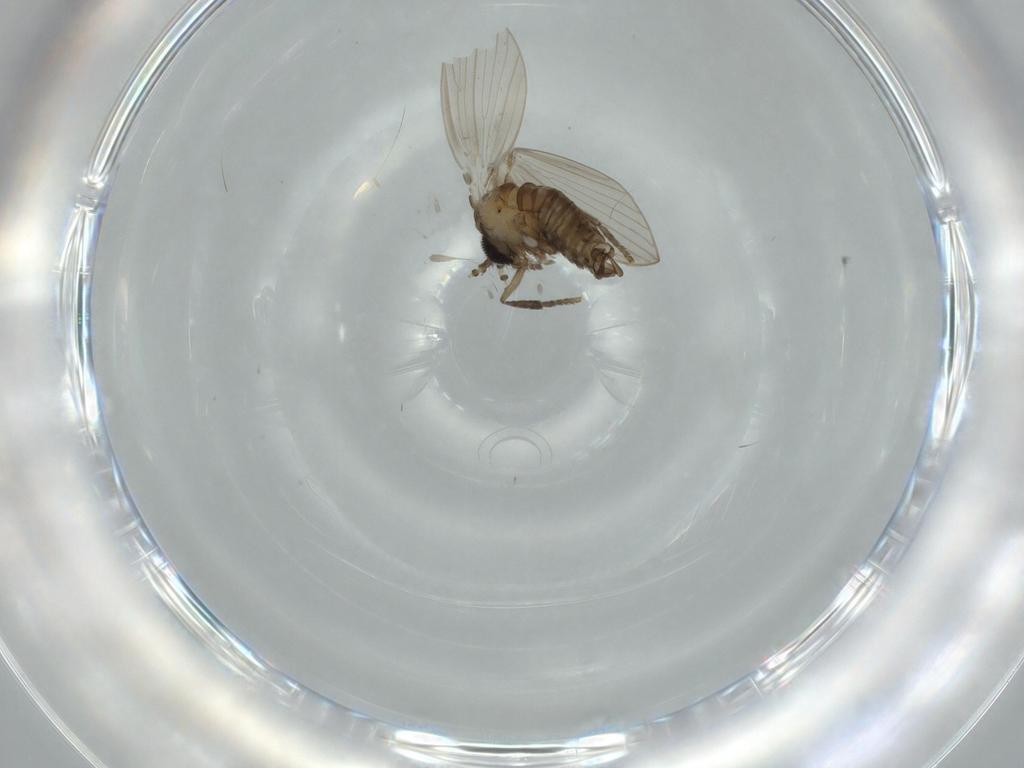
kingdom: Animalia
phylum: Arthropoda
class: Insecta
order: Diptera
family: Psychodidae
